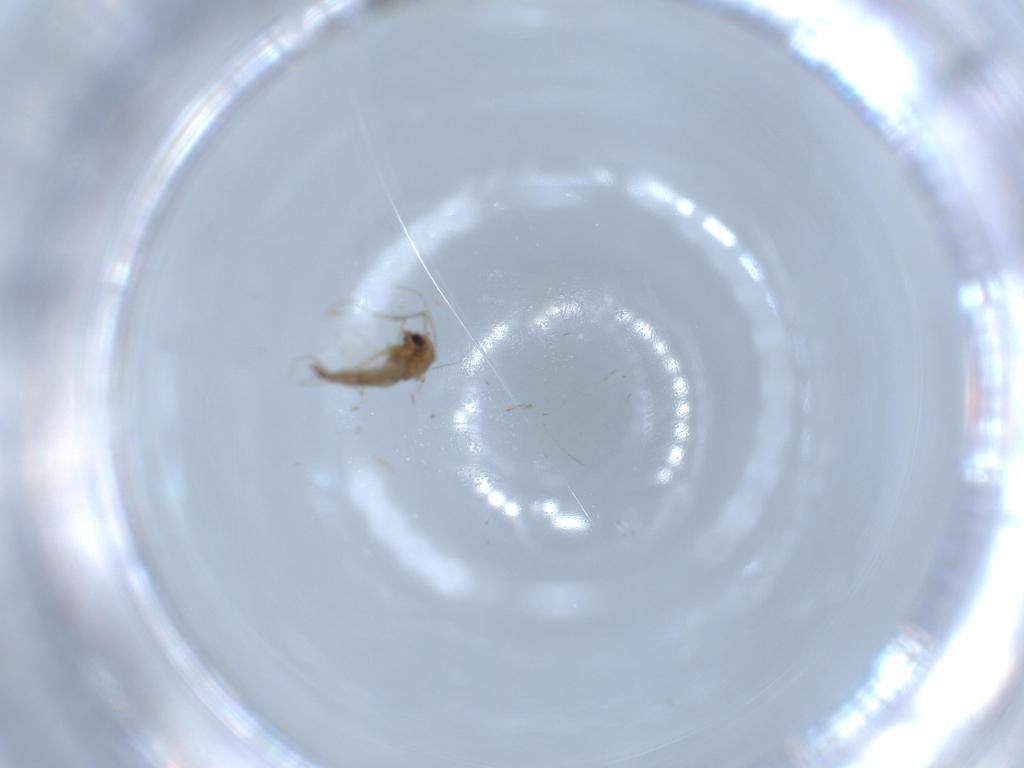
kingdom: Animalia
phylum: Arthropoda
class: Insecta
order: Diptera
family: Chironomidae
